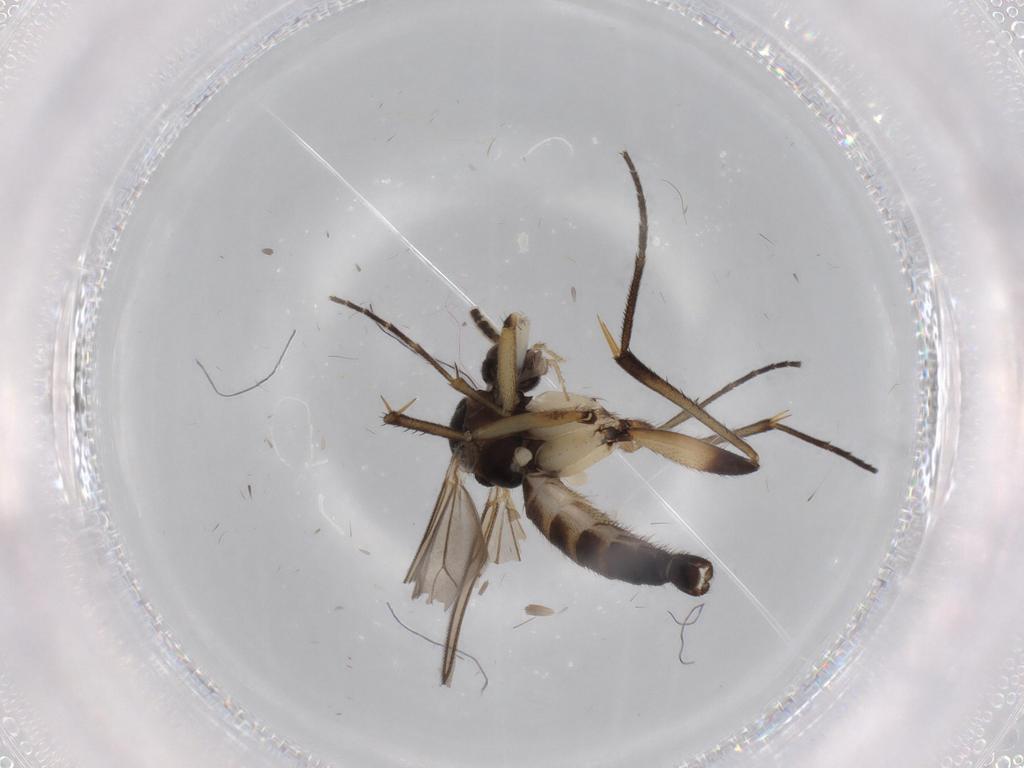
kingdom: Animalia
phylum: Arthropoda
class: Insecta
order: Diptera
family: Mycetophilidae
